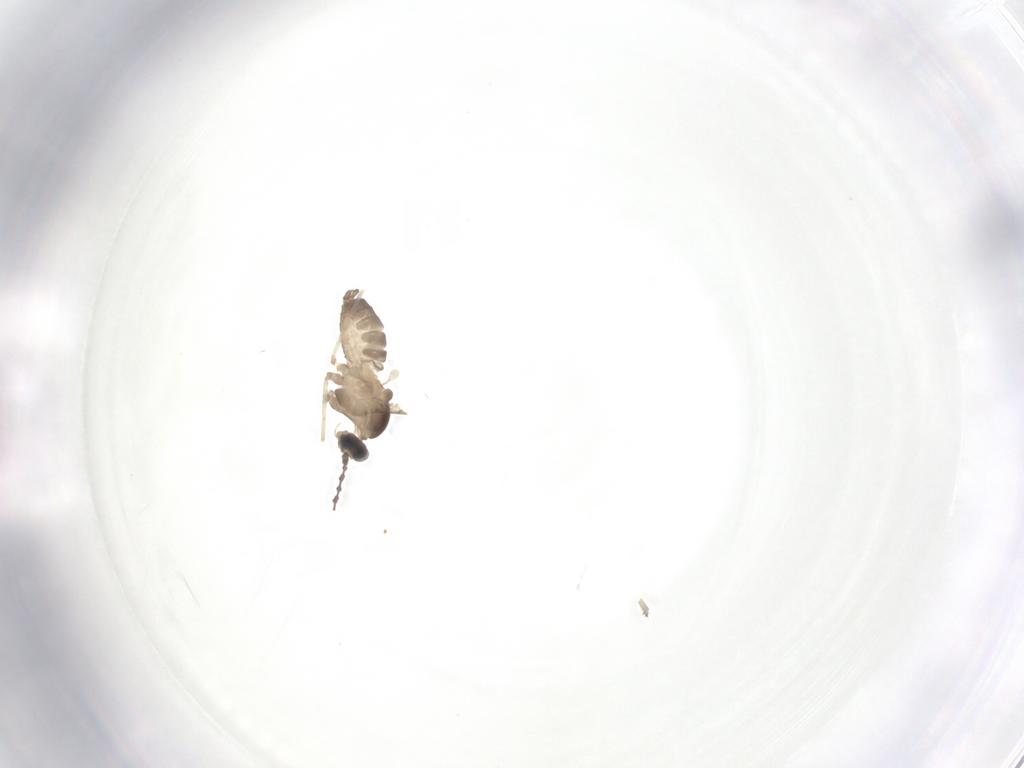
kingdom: Animalia
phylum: Arthropoda
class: Insecta
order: Diptera
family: Cecidomyiidae
